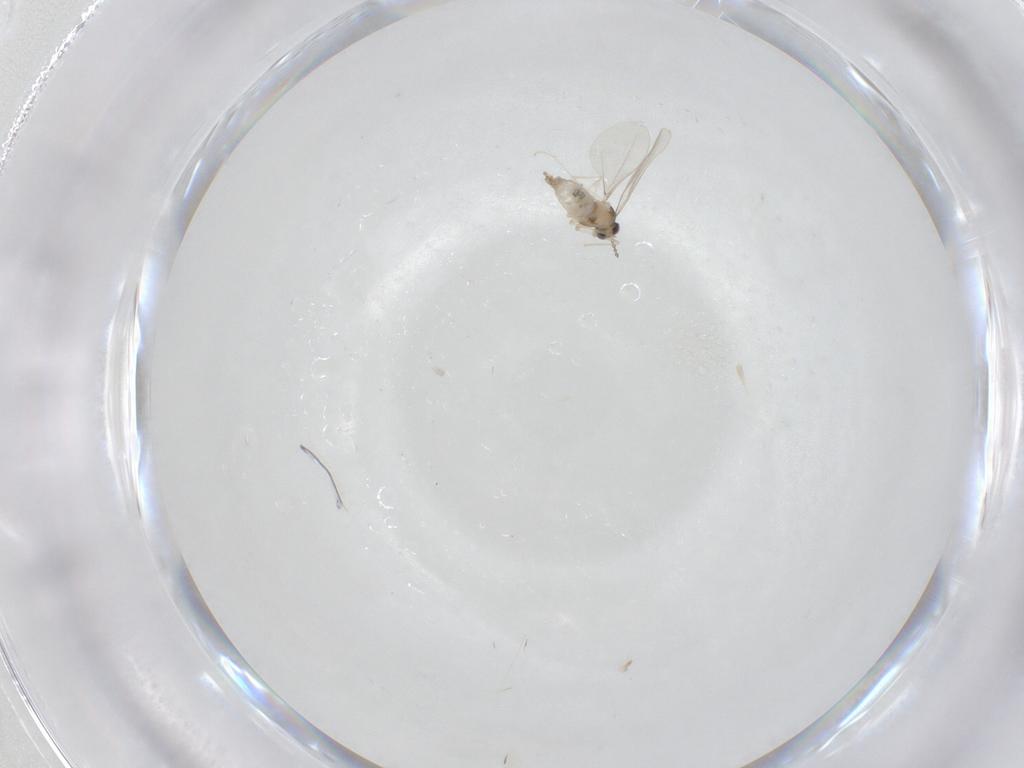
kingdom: Animalia
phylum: Arthropoda
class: Insecta
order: Diptera
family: Cecidomyiidae
